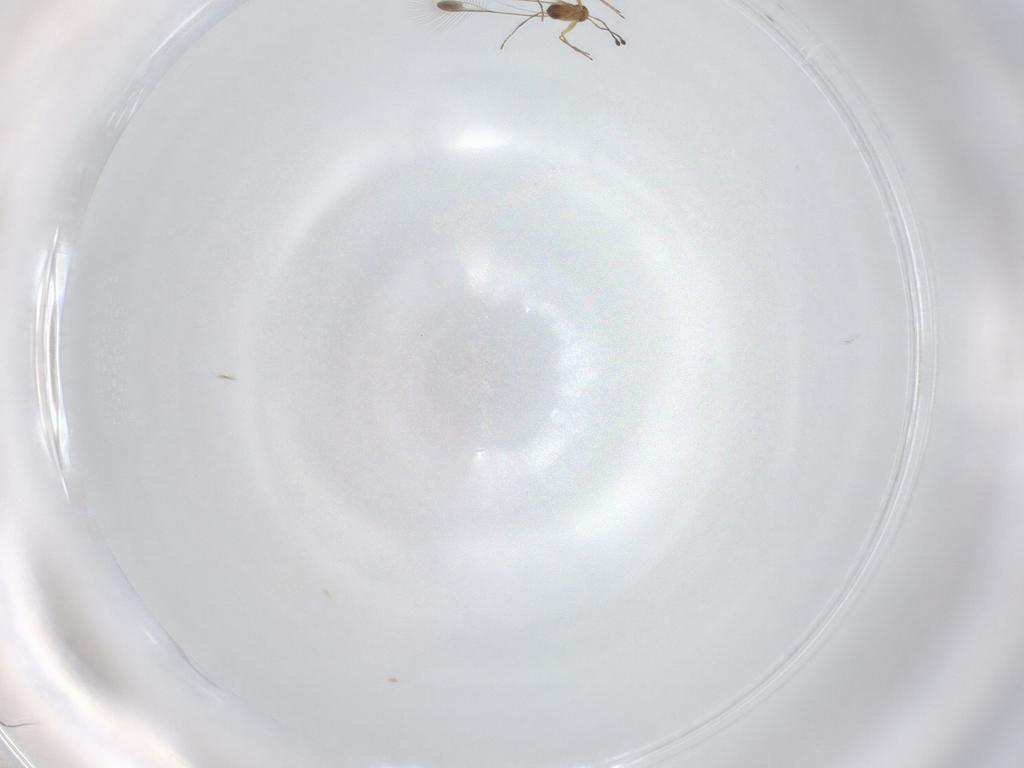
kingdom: Animalia
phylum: Arthropoda
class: Insecta
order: Hymenoptera
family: Mymaridae
